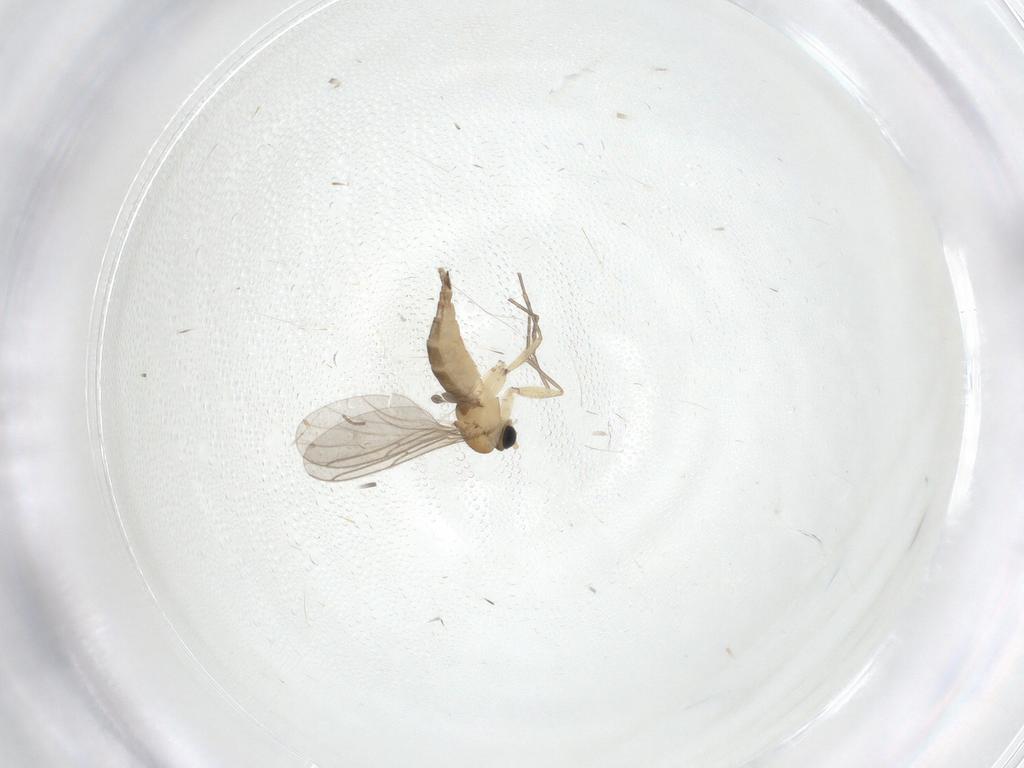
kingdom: Animalia
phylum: Arthropoda
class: Insecta
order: Diptera
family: Sciaridae
